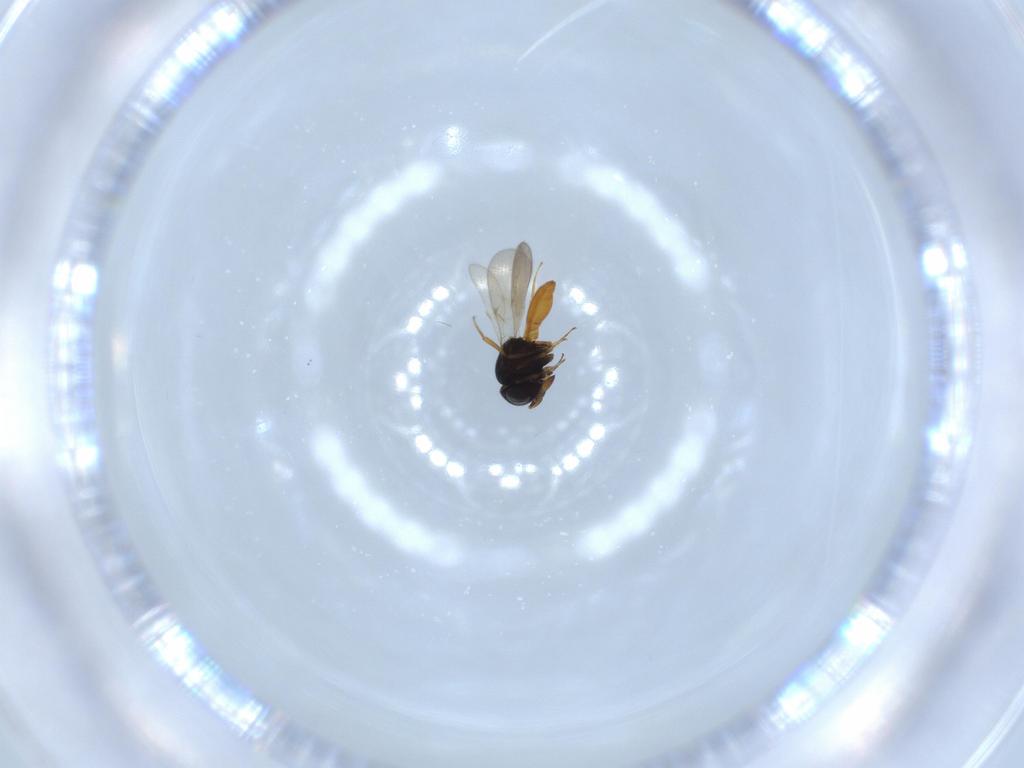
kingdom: Animalia
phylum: Arthropoda
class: Insecta
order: Hymenoptera
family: Scelionidae
